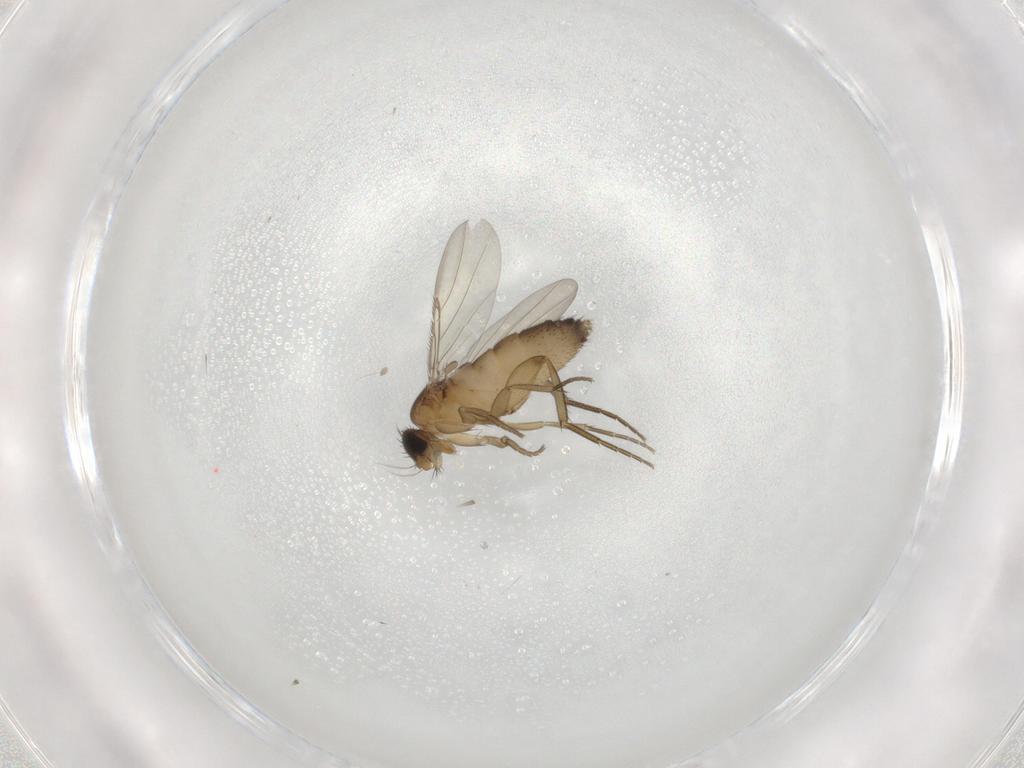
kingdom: Animalia
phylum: Arthropoda
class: Insecta
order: Diptera
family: Phoridae
